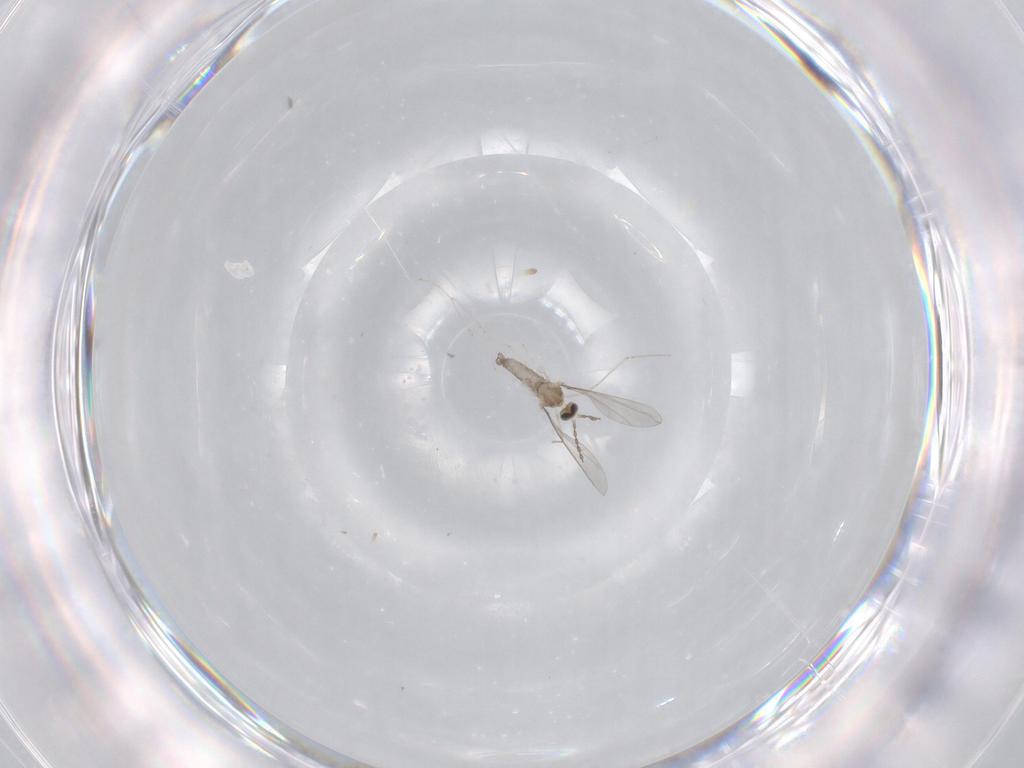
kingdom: Animalia
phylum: Arthropoda
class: Insecta
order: Diptera
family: Cecidomyiidae
